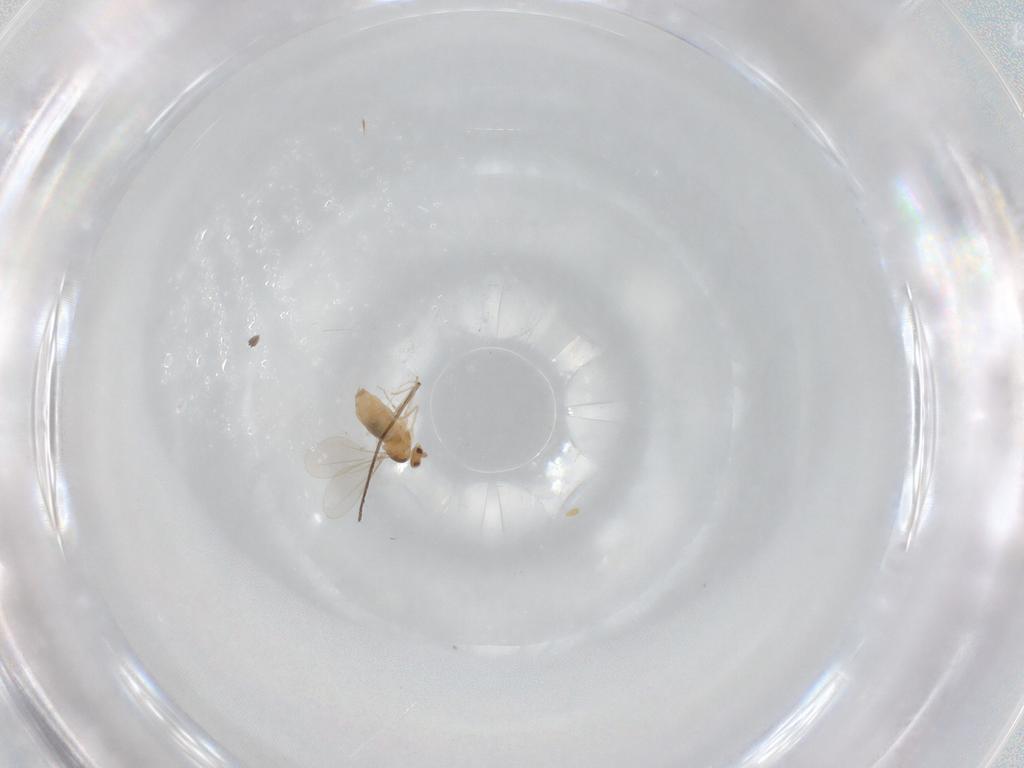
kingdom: Animalia
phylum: Arthropoda
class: Insecta
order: Diptera
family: Cecidomyiidae
